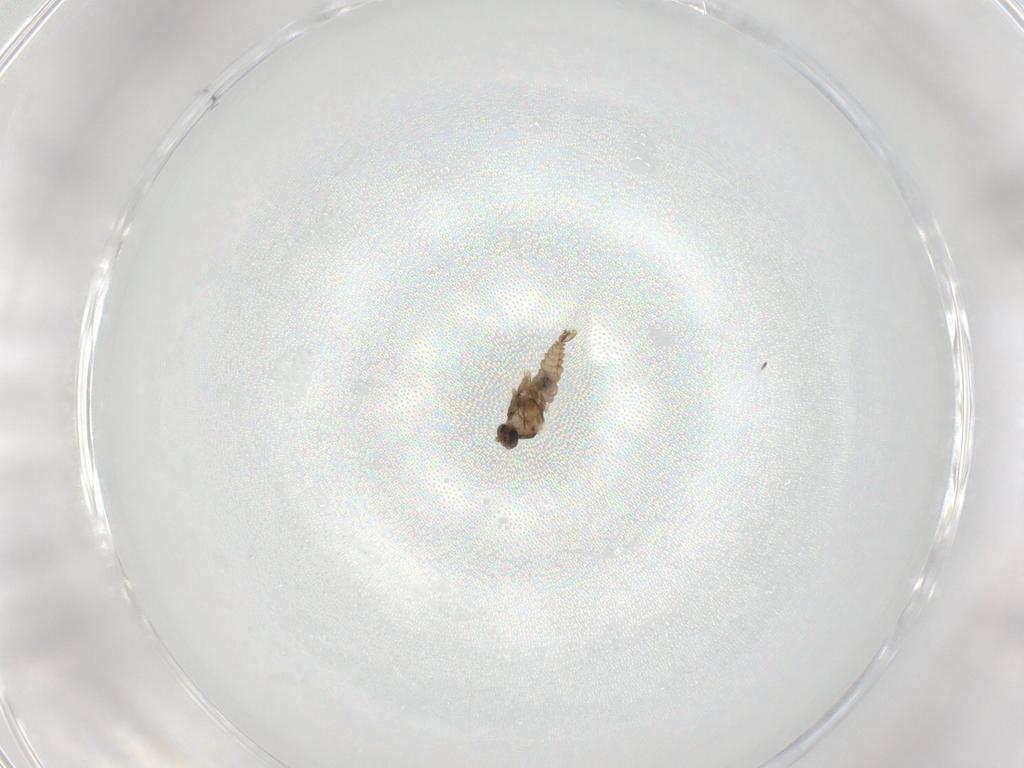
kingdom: Animalia
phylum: Arthropoda
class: Insecta
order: Diptera
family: Cecidomyiidae
